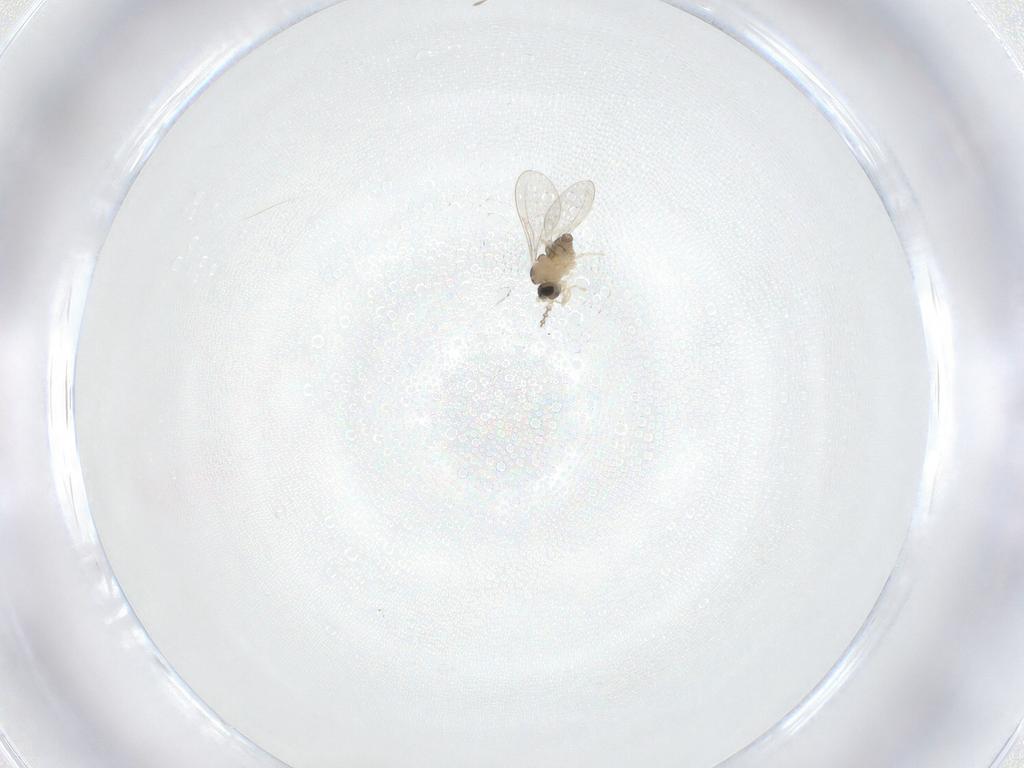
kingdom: Animalia
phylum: Arthropoda
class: Insecta
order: Diptera
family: Cecidomyiidae
